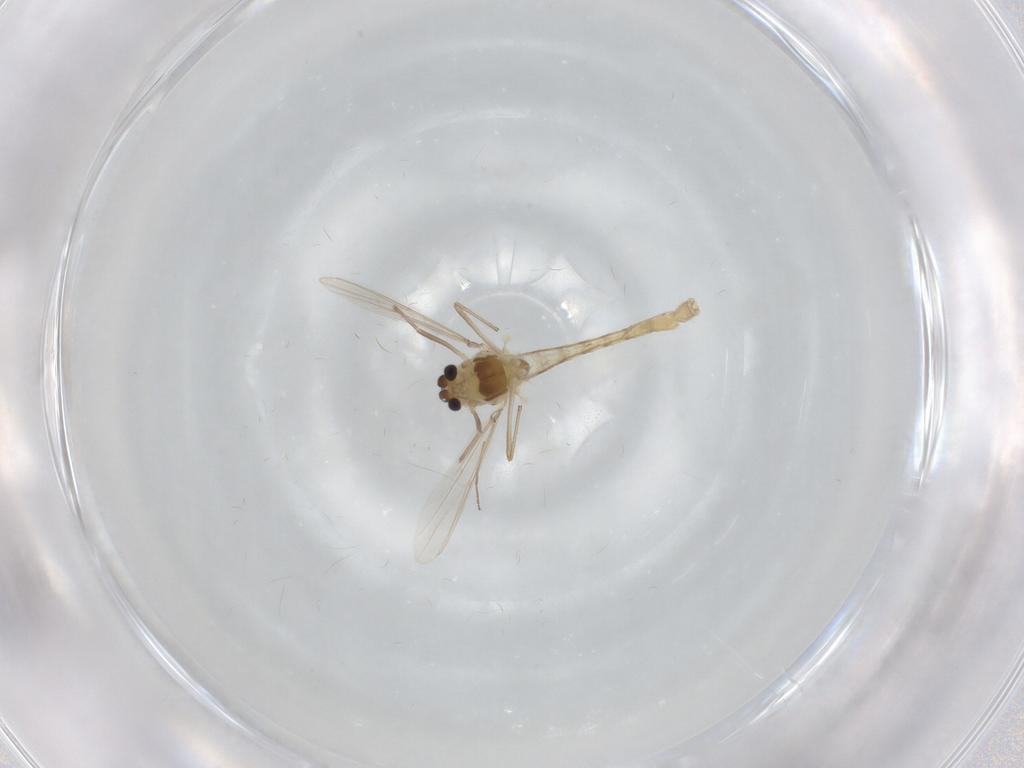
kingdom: Animalia
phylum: Arthropoda
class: Insecta
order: Diptera
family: Chironomidae
